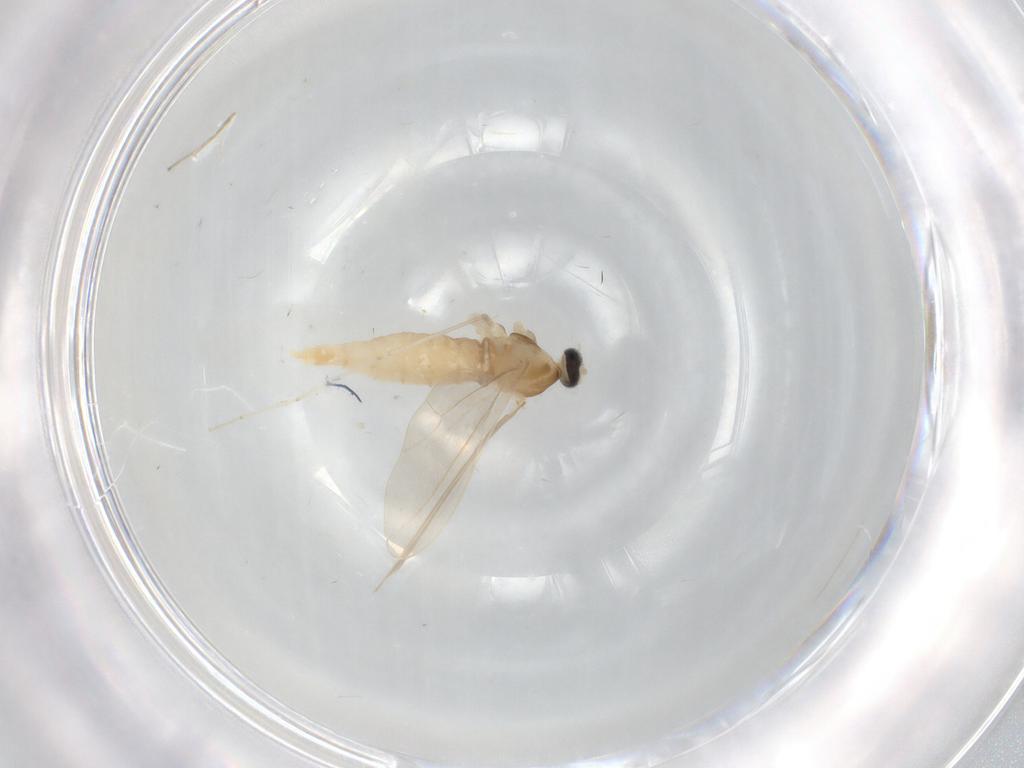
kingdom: Animalia
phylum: Arthropoda
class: Insecta
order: Diptera
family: Cecidomyiidae
